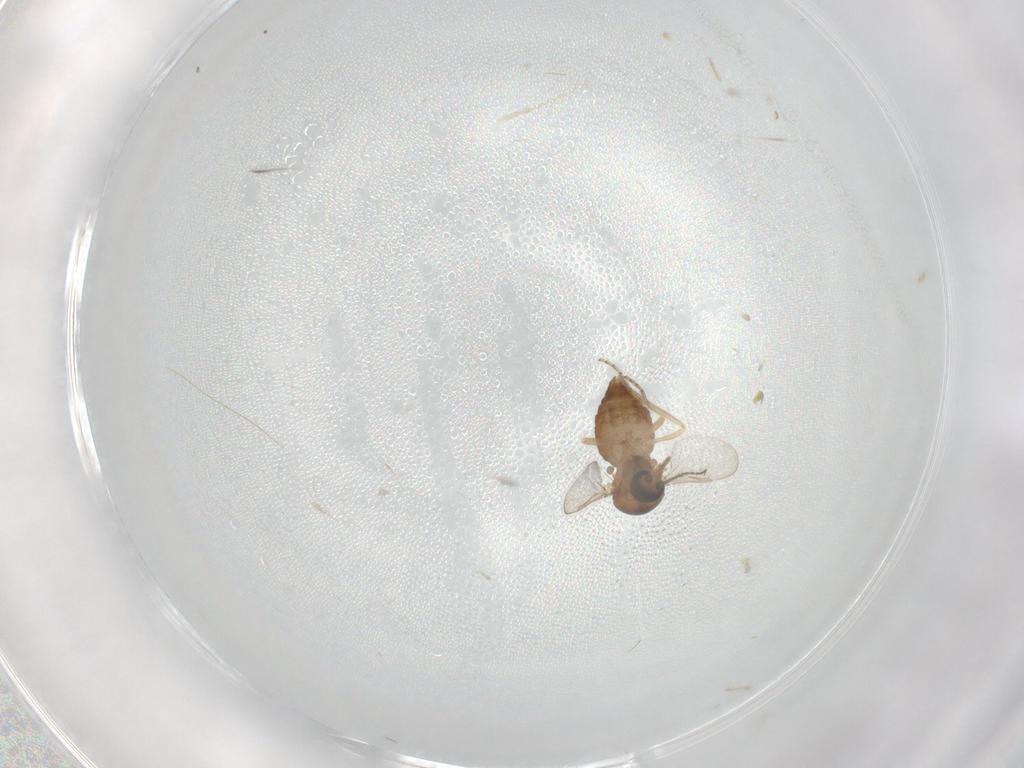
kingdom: Animalia
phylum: Arthropoda
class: Insecta
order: Diptera
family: Ceratopogonidae
